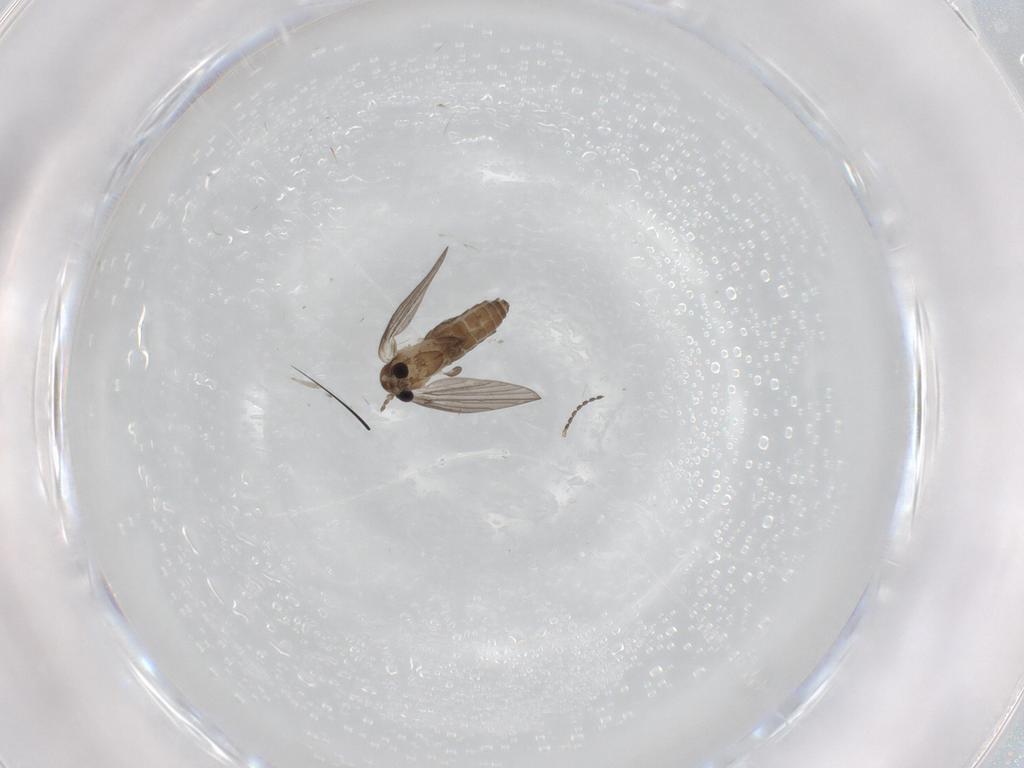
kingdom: Animalia
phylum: Arthropoda
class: Insecta
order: Diptera
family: Psychodidae
